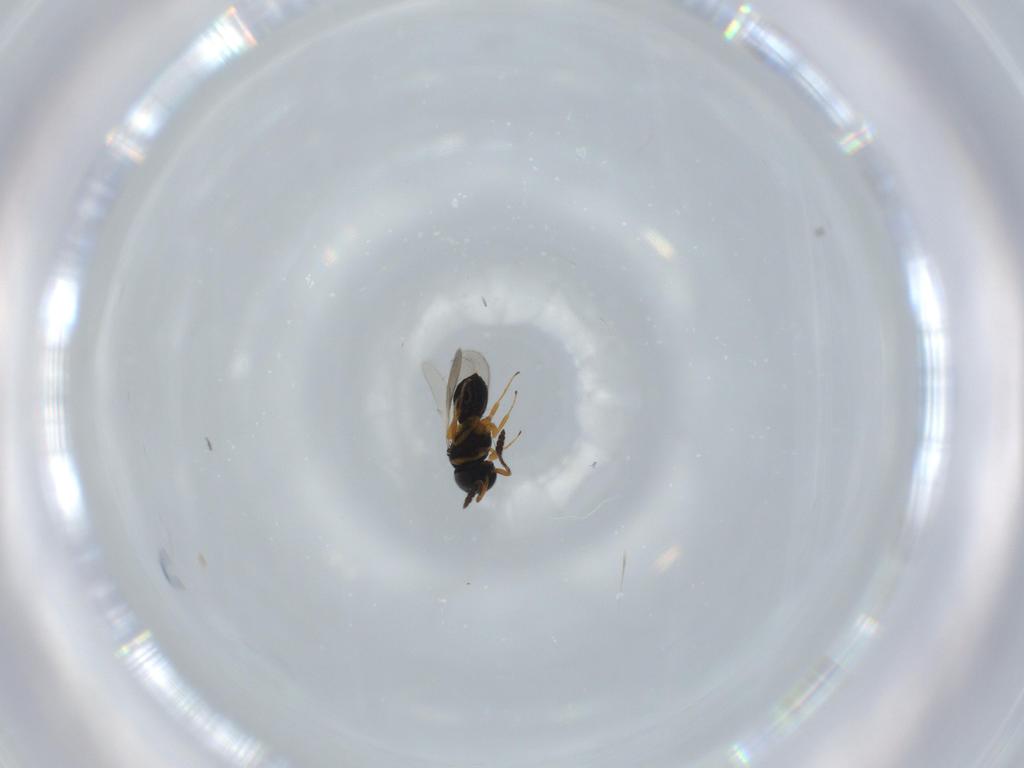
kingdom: Animalia
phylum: Arthropoda
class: Insecta
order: Hymenoptera
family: Scelionidae
